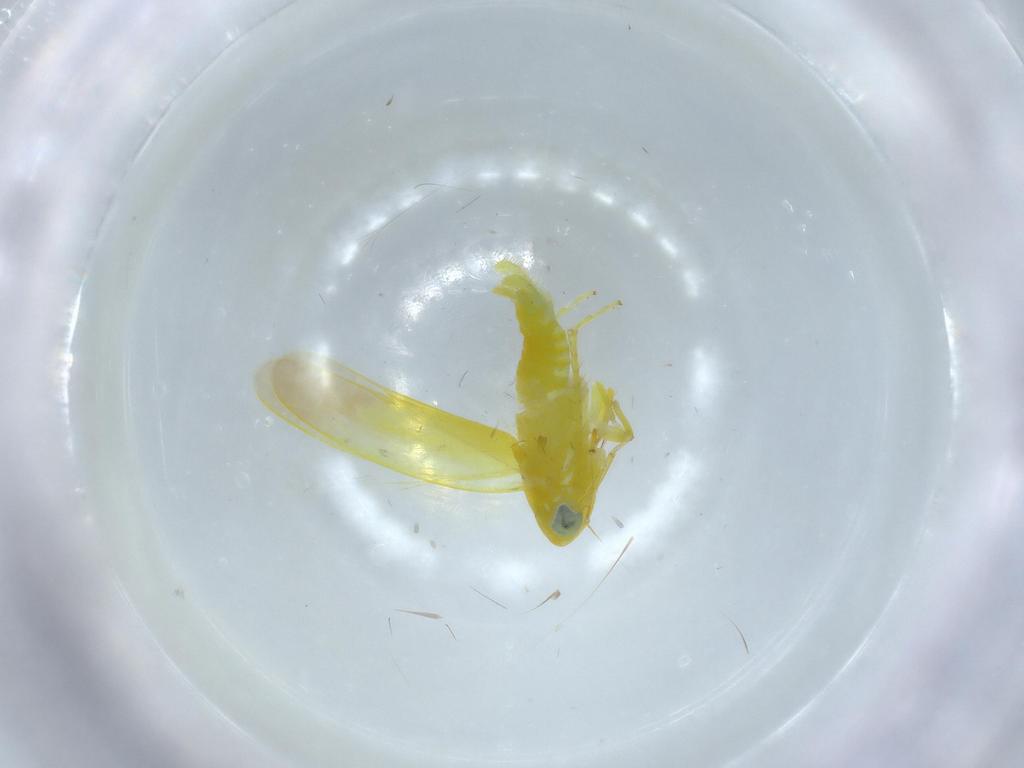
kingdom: Animalia
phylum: Arthropoda
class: Insecta
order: Hemiptera
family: Cicadellidae
